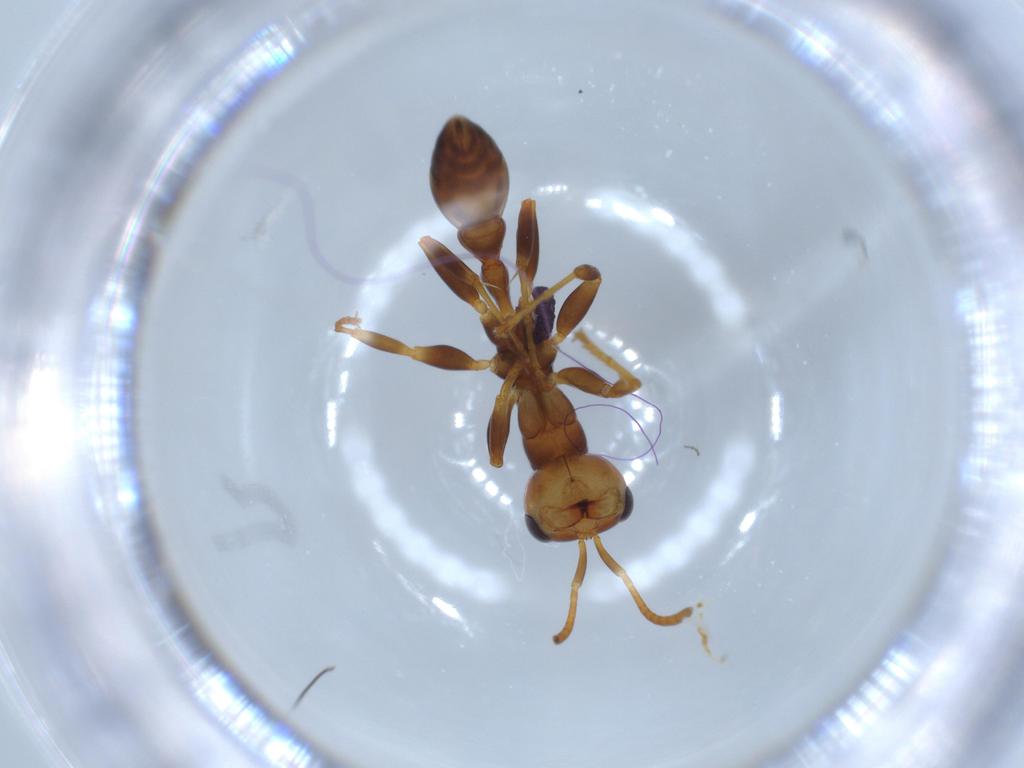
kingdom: Animalia
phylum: Arthropoda
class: Insecta
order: Hymenoptera
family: Formicidae
